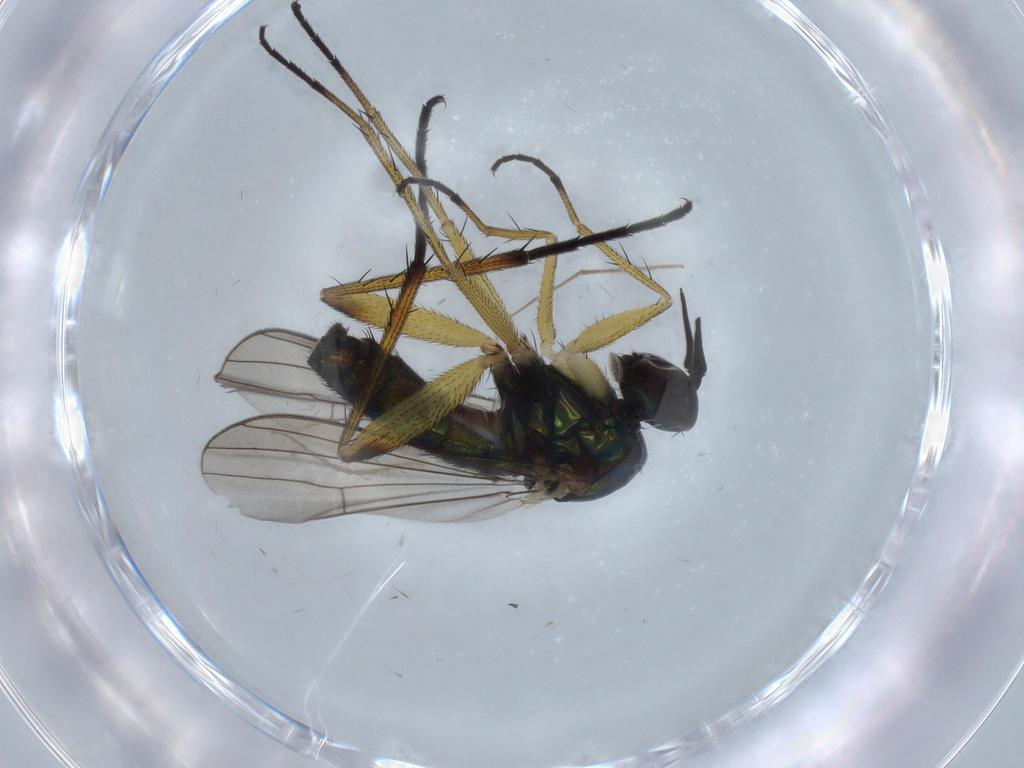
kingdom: Animalia
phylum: Arthropoda
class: Insecta
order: Diptera
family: Dolichopodidae
